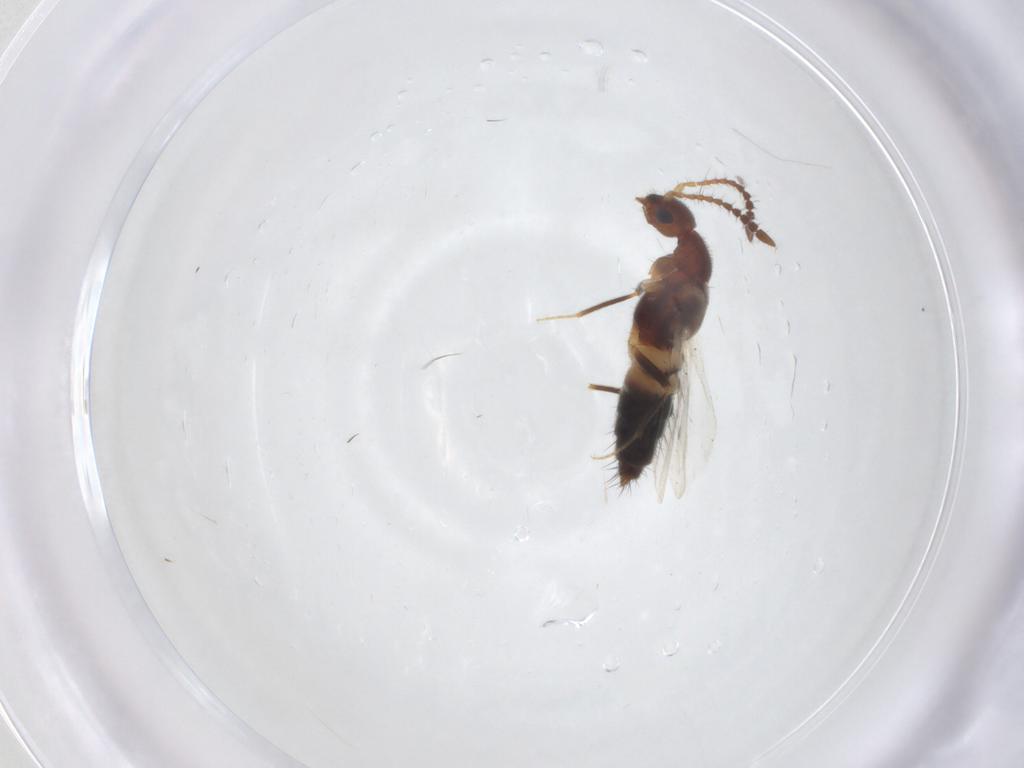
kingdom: Animalia
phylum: Arthropoda
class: Insecta
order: Coleoptera
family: Staphylinidae
